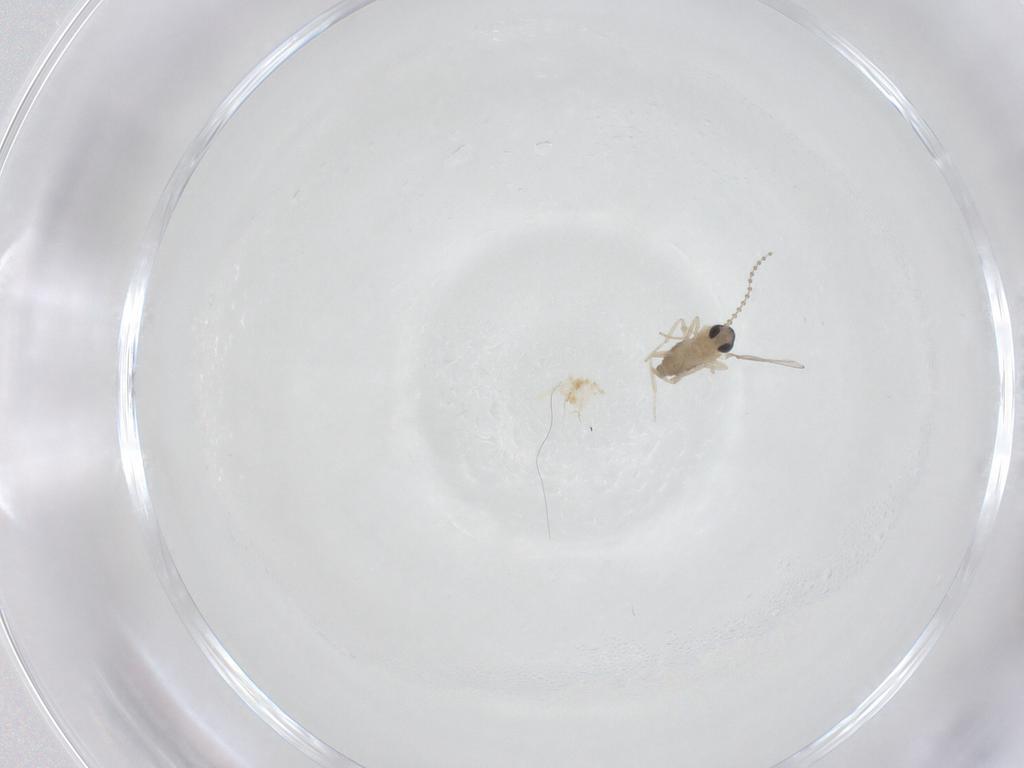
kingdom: Animalia
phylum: Arthropoda
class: Insecta
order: Diptera
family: Cecidomyiidae
